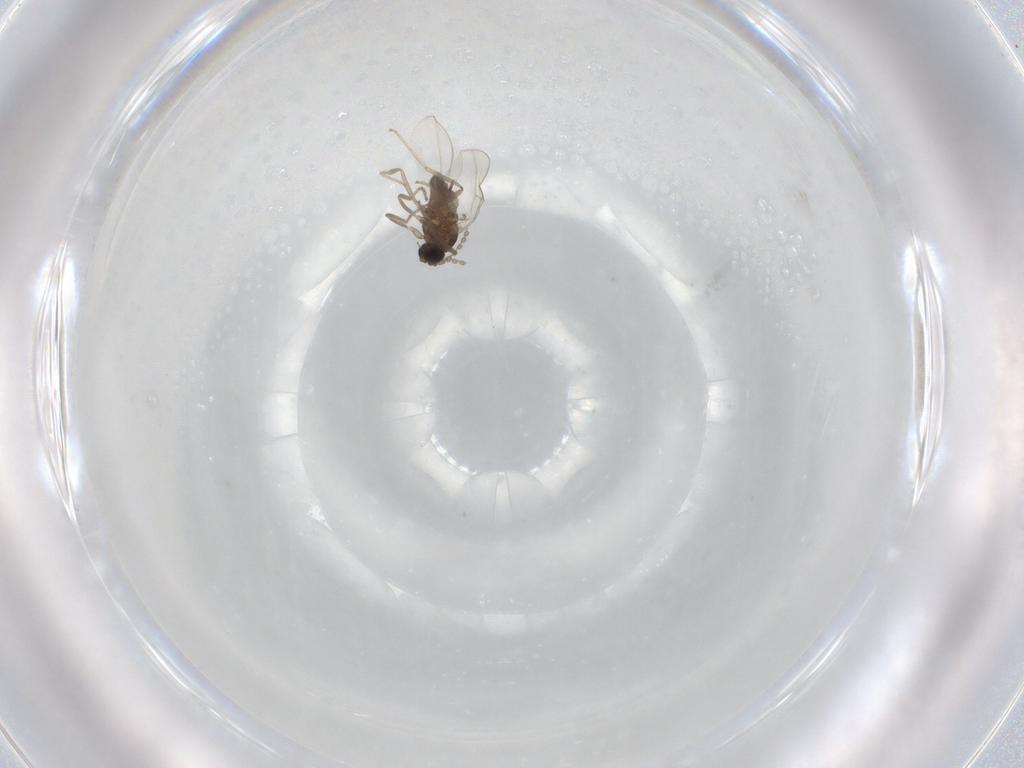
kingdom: Animalia
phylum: Arthropoda
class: Insecta
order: Diptera
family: Cecidomyiidae
